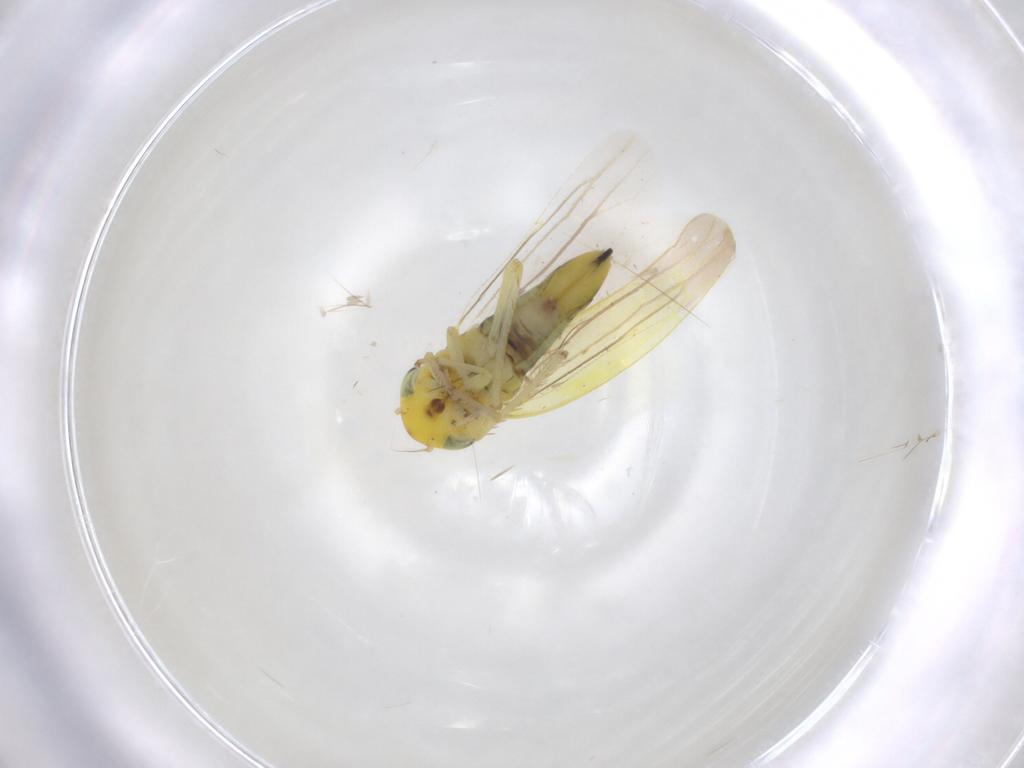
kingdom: Animalia
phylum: Arthropoda
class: Insecta
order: Hemiptera
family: Cicadellidae
